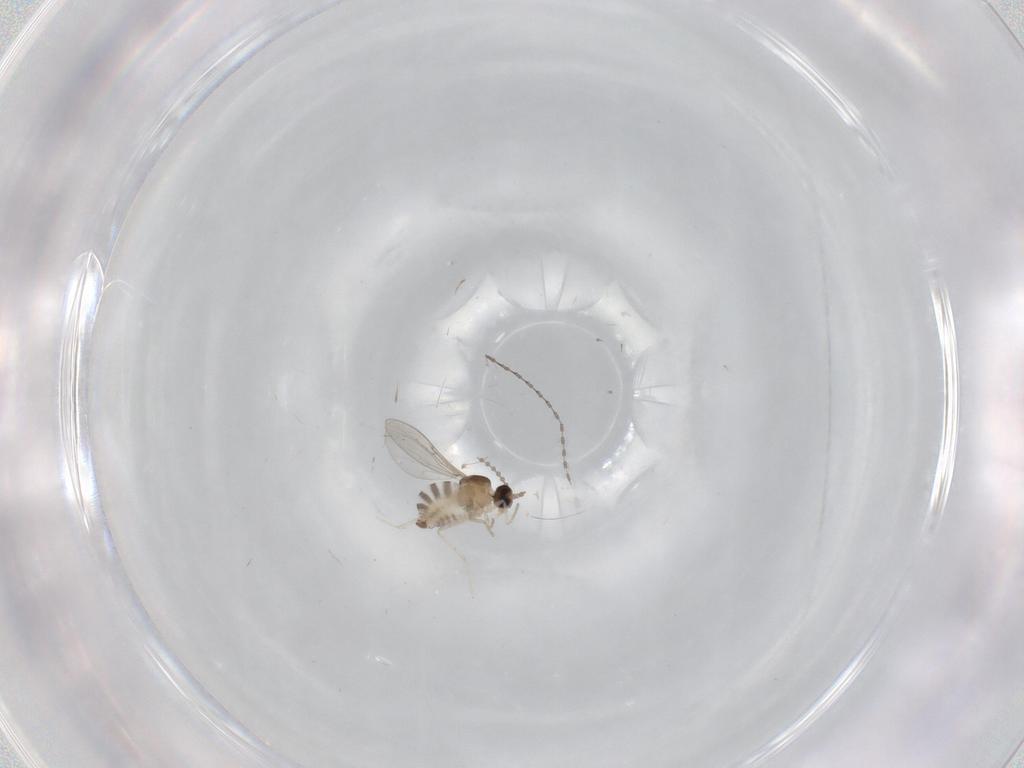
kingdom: Animalia
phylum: Arthropoda
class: Insecta
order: Diptera
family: Cecidomyiidae
